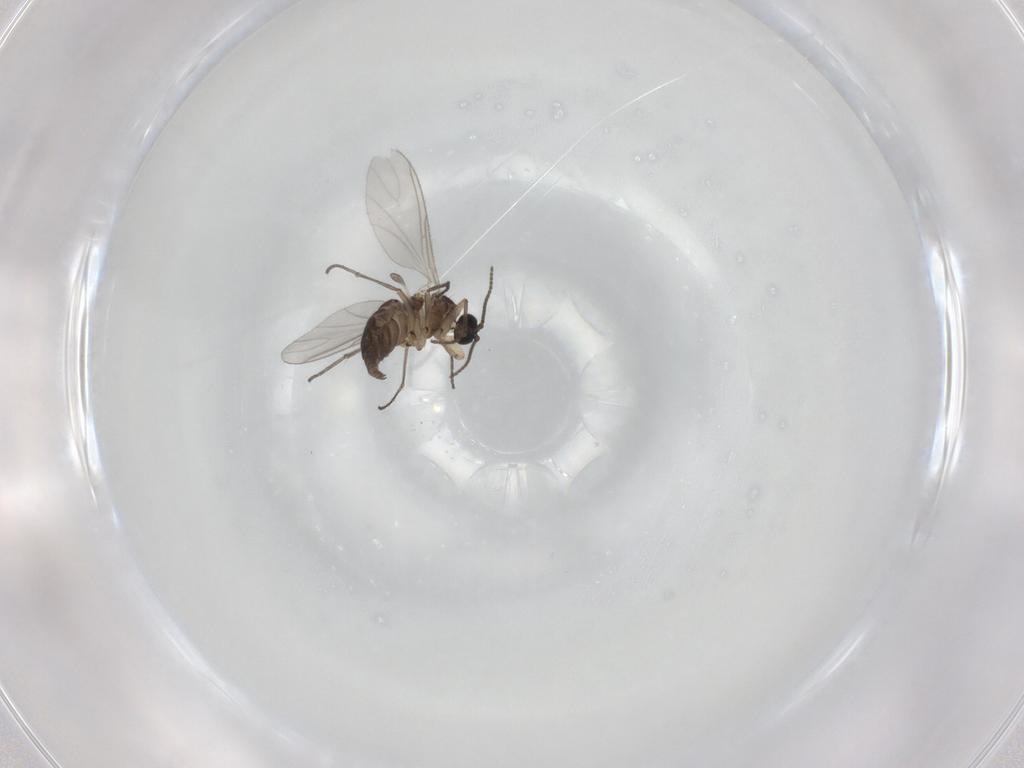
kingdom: Animalia
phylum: Arthropoda
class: Insecta
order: Diptera
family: Sciaridae
